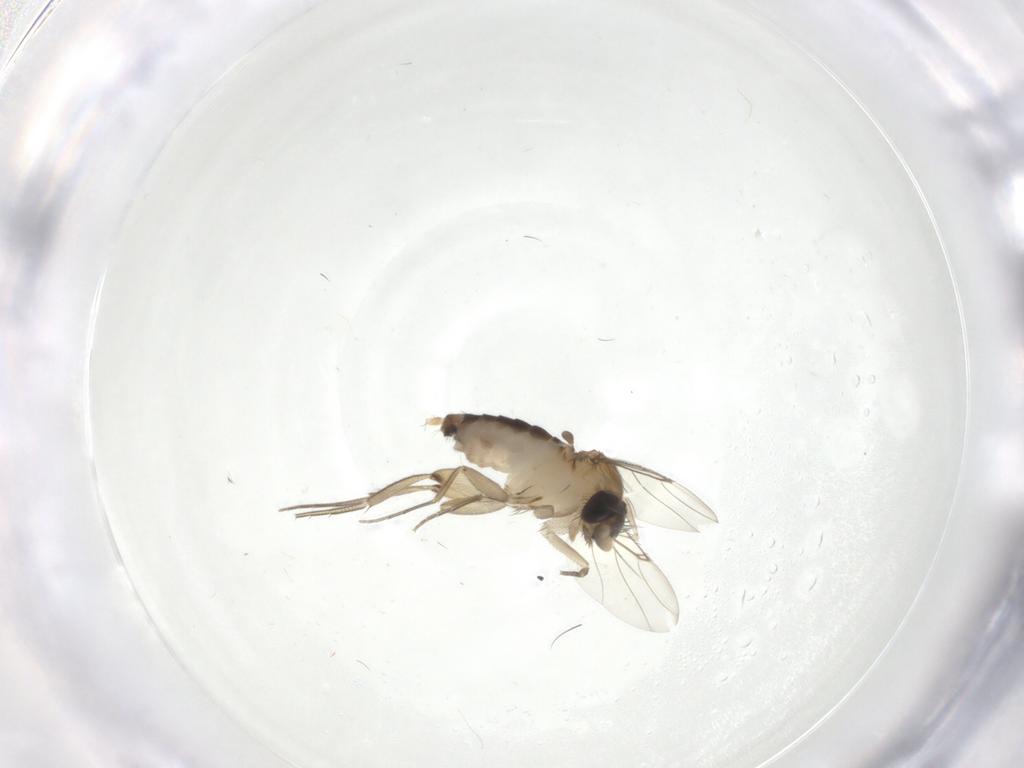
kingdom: Animalia
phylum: Arthropoda
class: Insecta
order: Diptera
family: Phoridae
